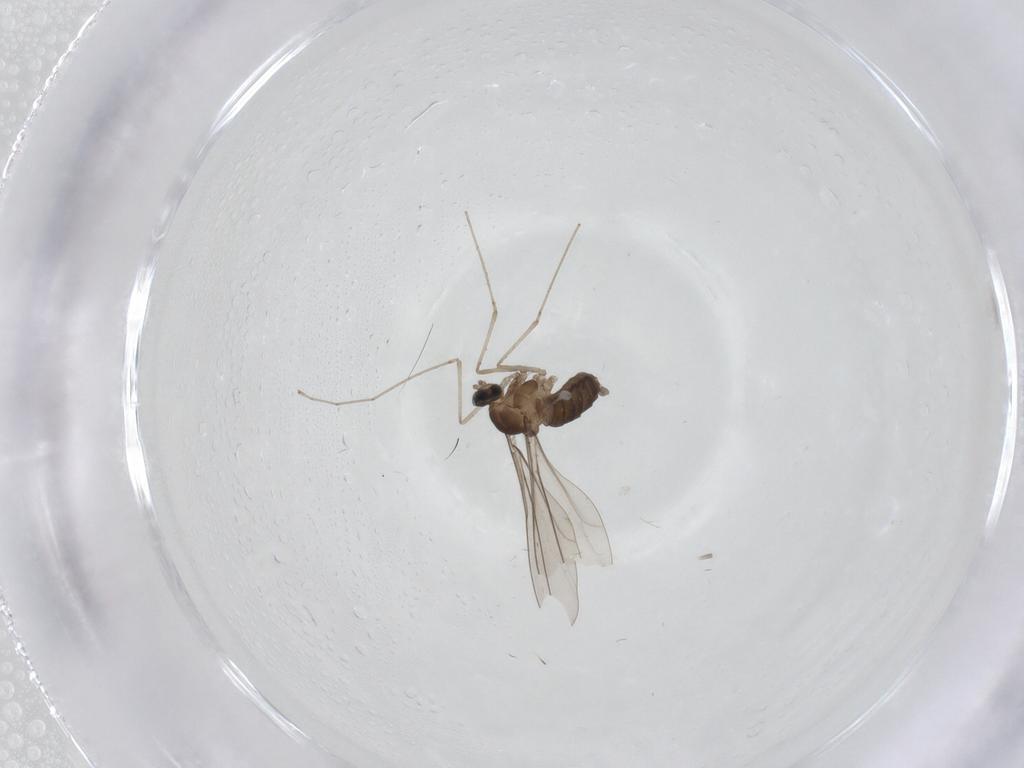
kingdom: Animalia
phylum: Arthropoda
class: Insecta
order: Diptera
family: Cecidomyiidae
